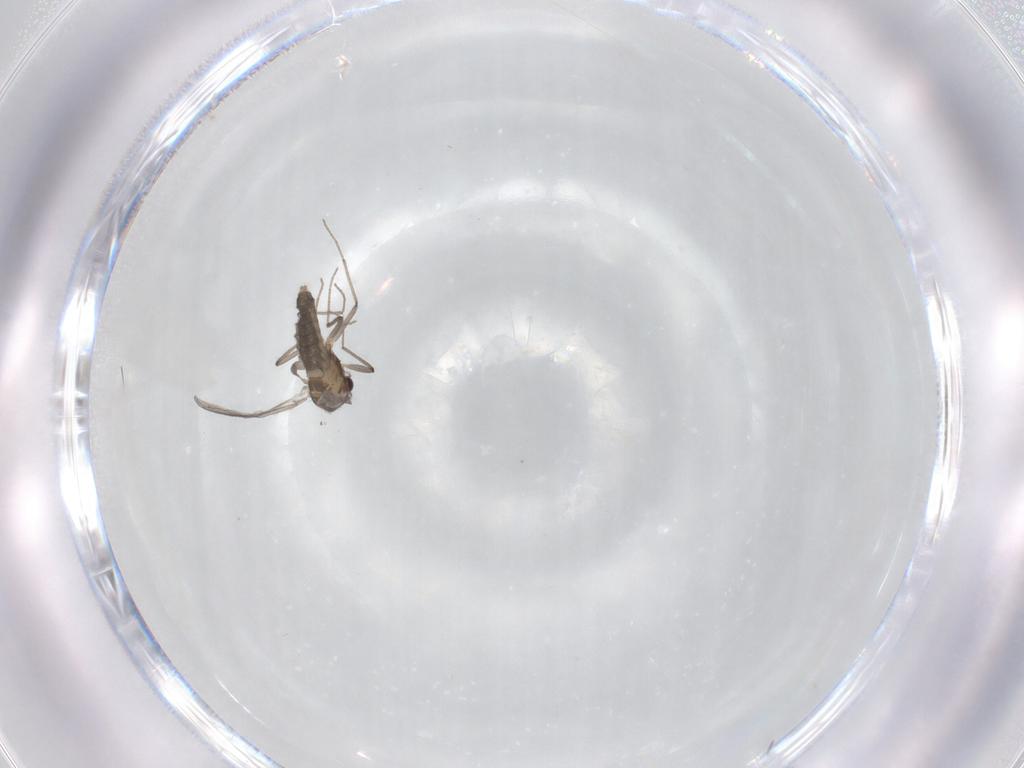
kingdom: Animalia
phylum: Arthropoda
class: Insecta
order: Diptera
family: Chironomidae
